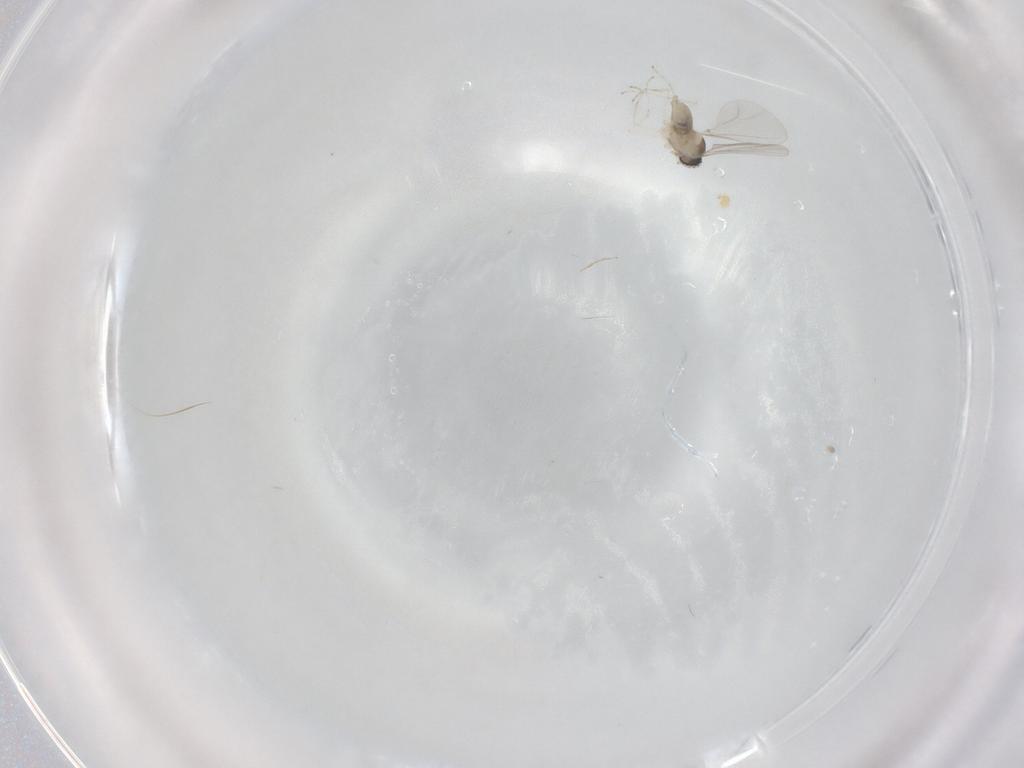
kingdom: Animalia
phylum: Arthropoda
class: Insecta
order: Diptera
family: Cecidomyiidae
